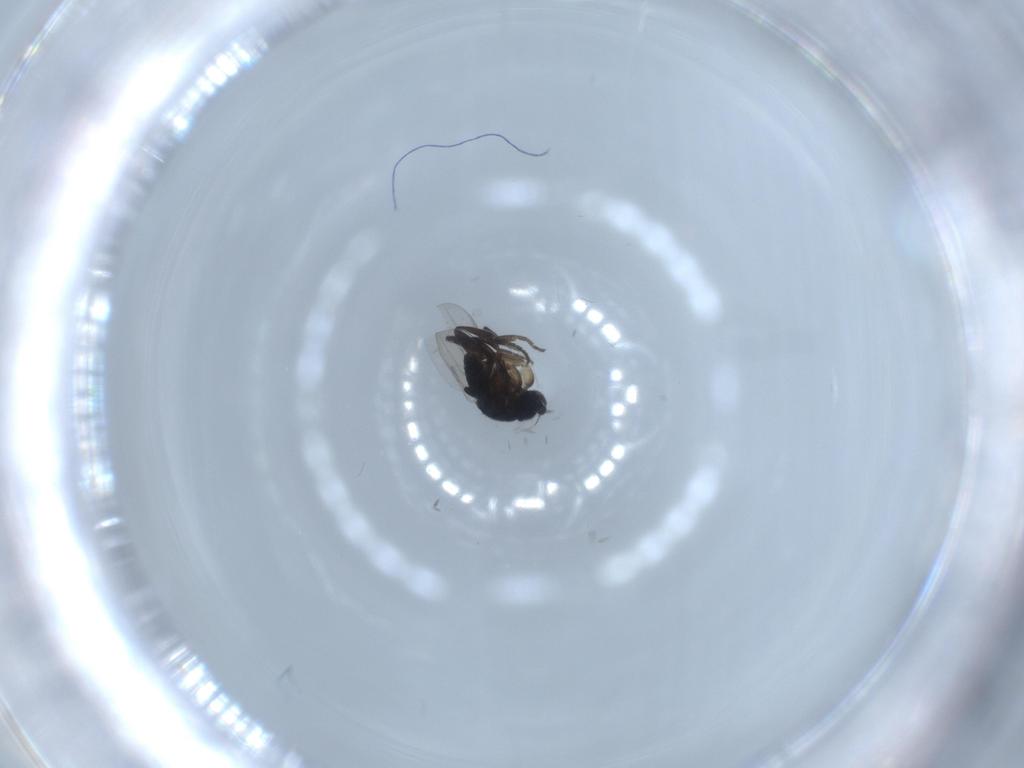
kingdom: Animalia
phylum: Arthropoda
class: Insecta
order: Diptera
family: Phoridae
